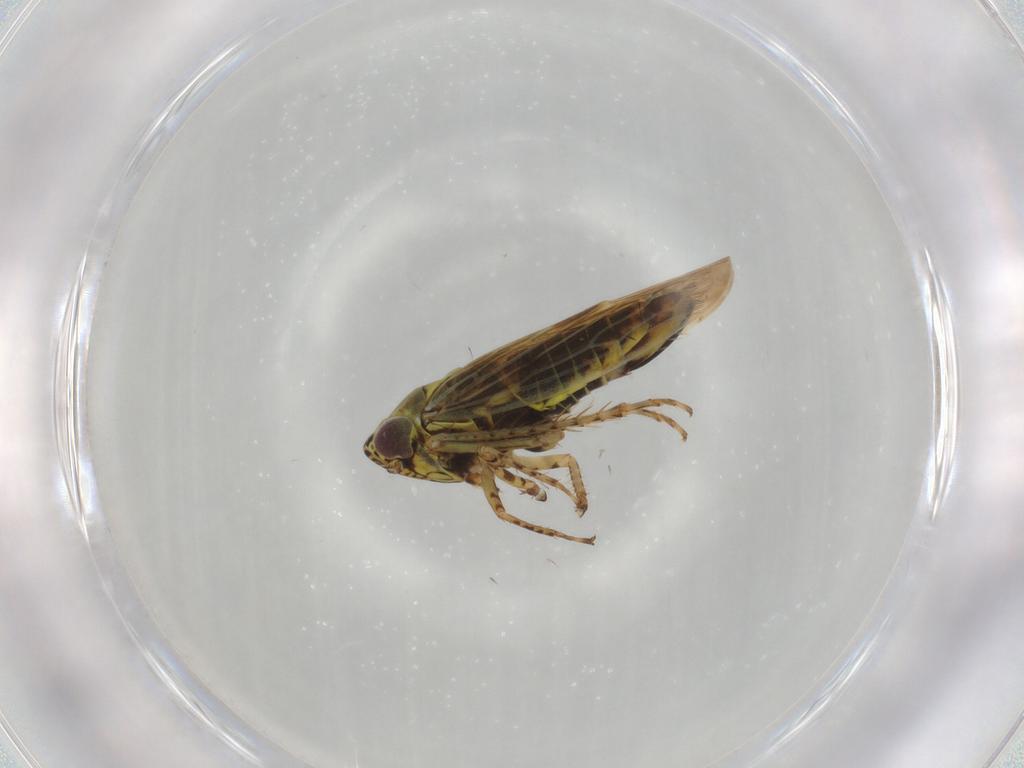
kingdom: Animalia
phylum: Arthropoda
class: Insecta
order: Hemiptera
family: Cicadellidae
